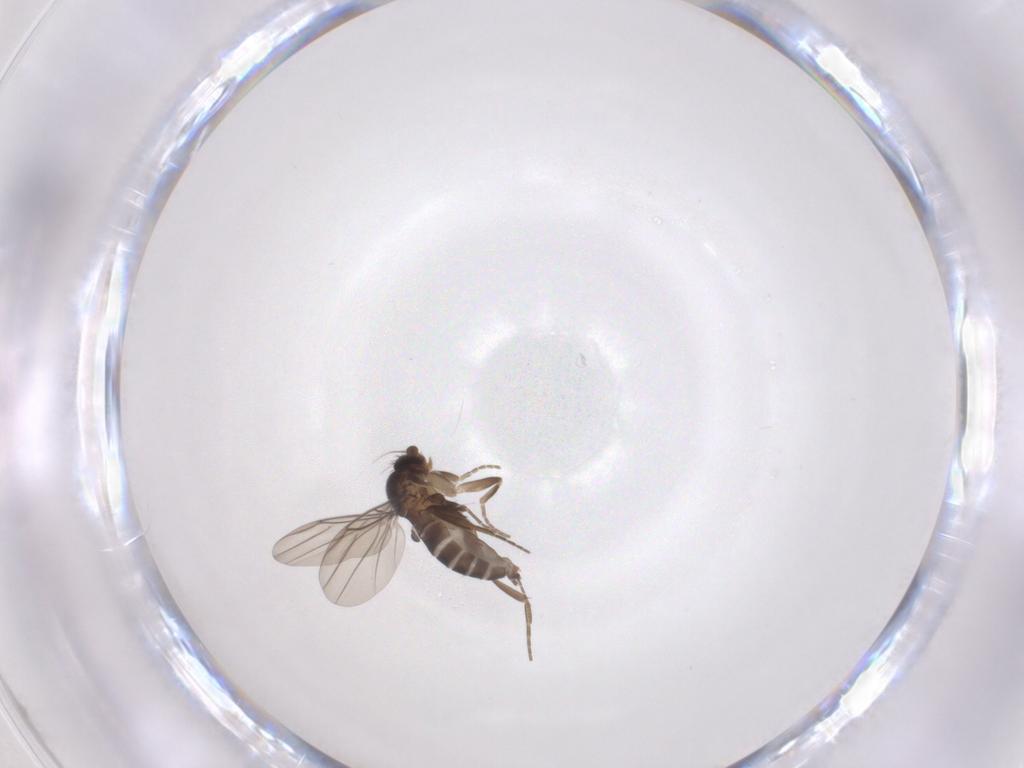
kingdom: Animalia
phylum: Arthropoda
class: Insecta
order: Diptera
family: Phoridae
